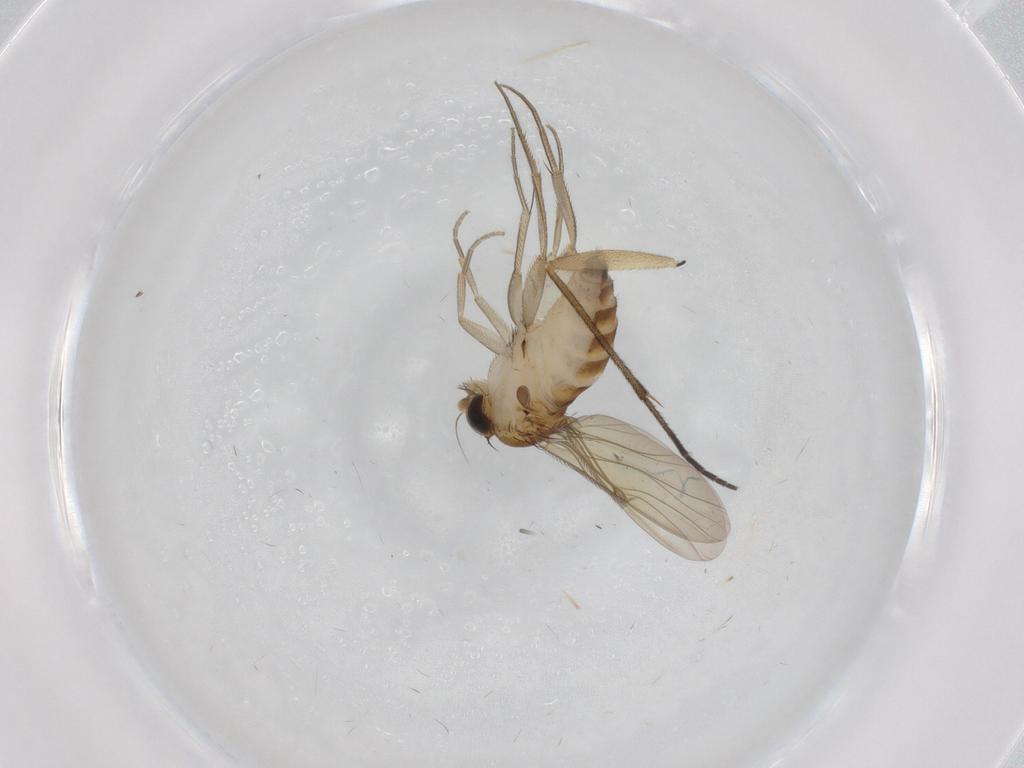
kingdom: Animalia
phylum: Arthropoda
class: Insecta
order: Diptera
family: Phoridae
